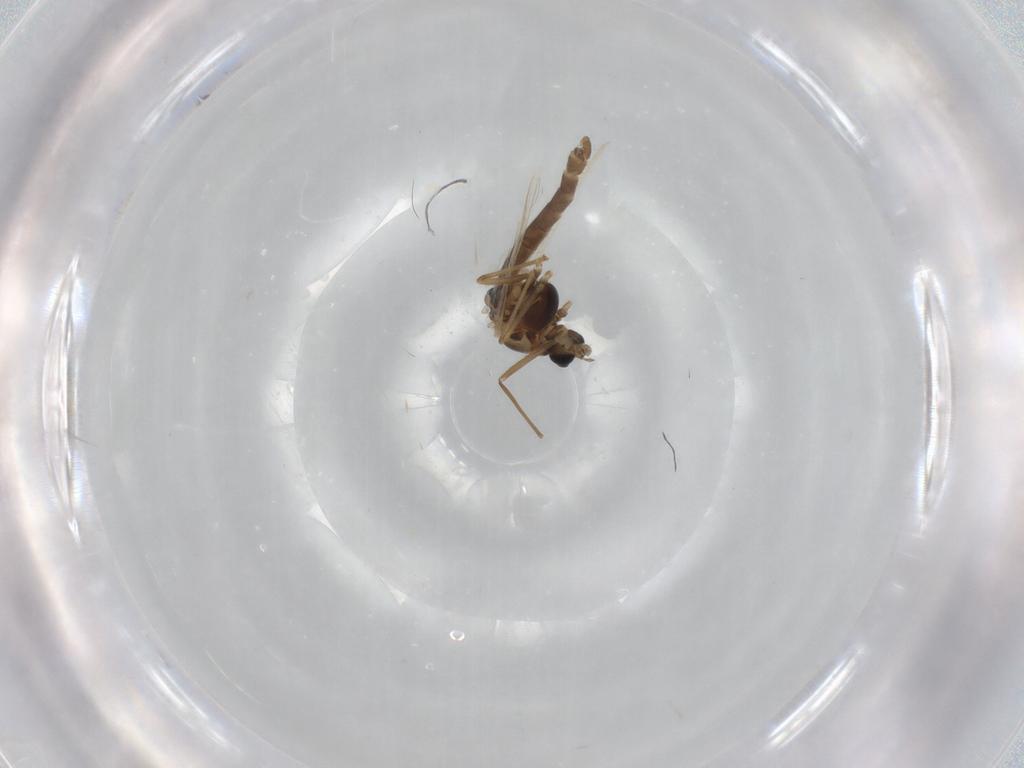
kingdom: Animalia
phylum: Arthropoda
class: Insecta
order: Diptera
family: Chironomidae
